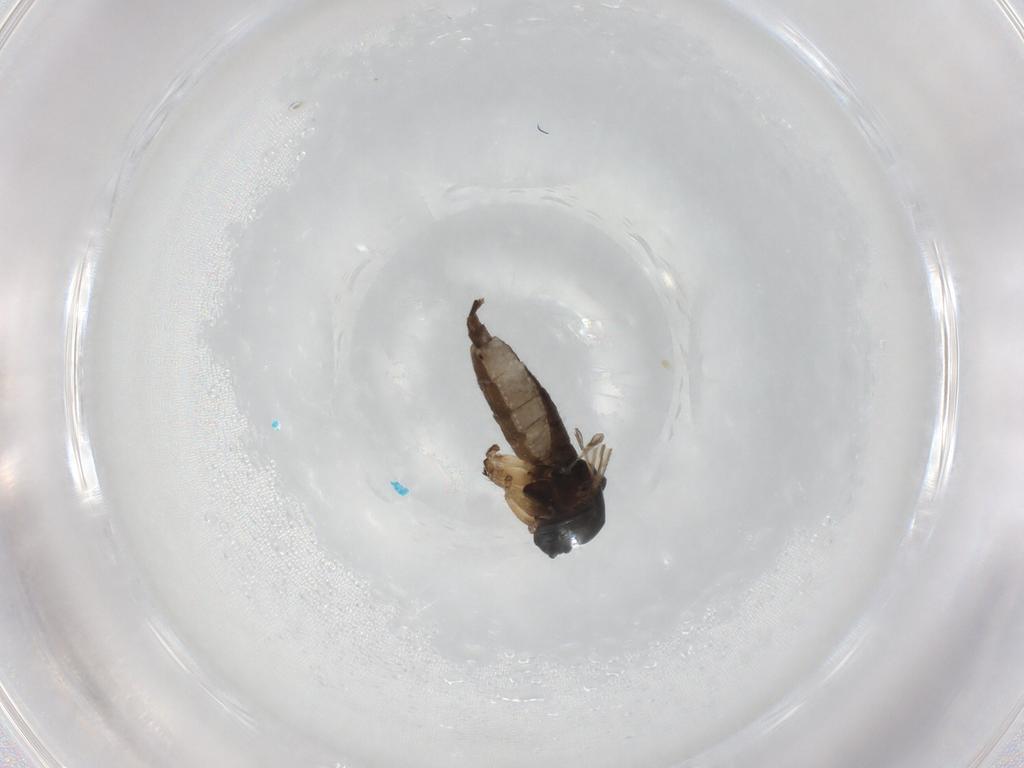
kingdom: Animalia
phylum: Arthropoda
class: Insecta
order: Diptera
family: Sciaridae
